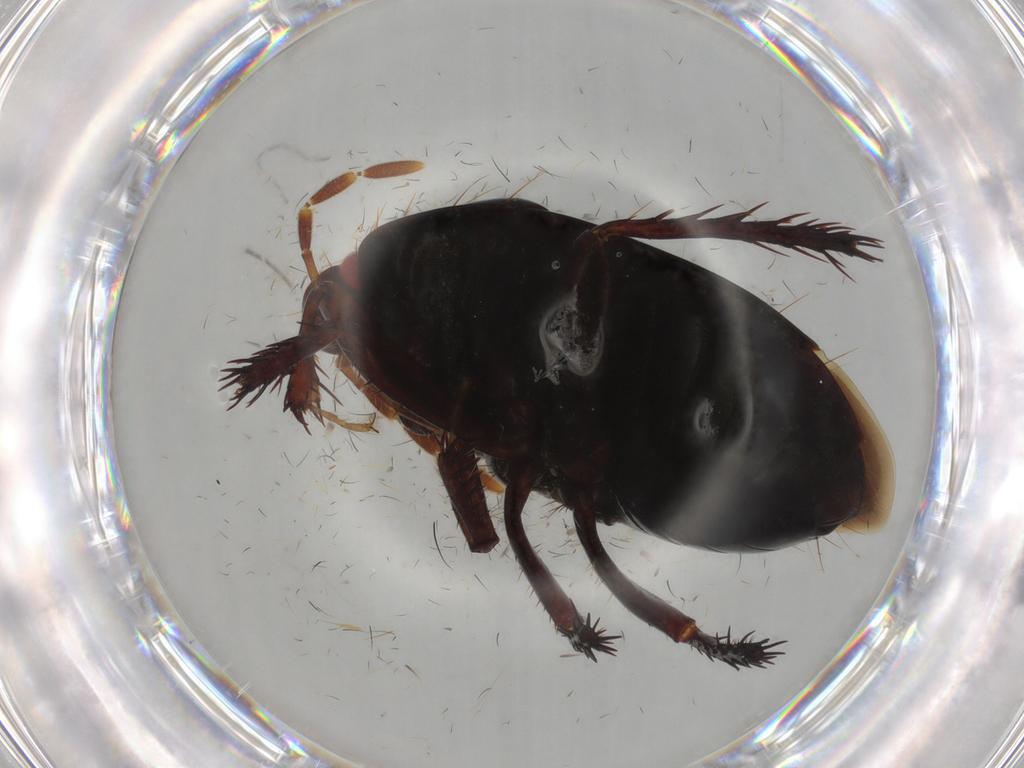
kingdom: Animalia
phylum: Arthropoda
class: Insecta
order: Hemiptera
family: Cydnidae
